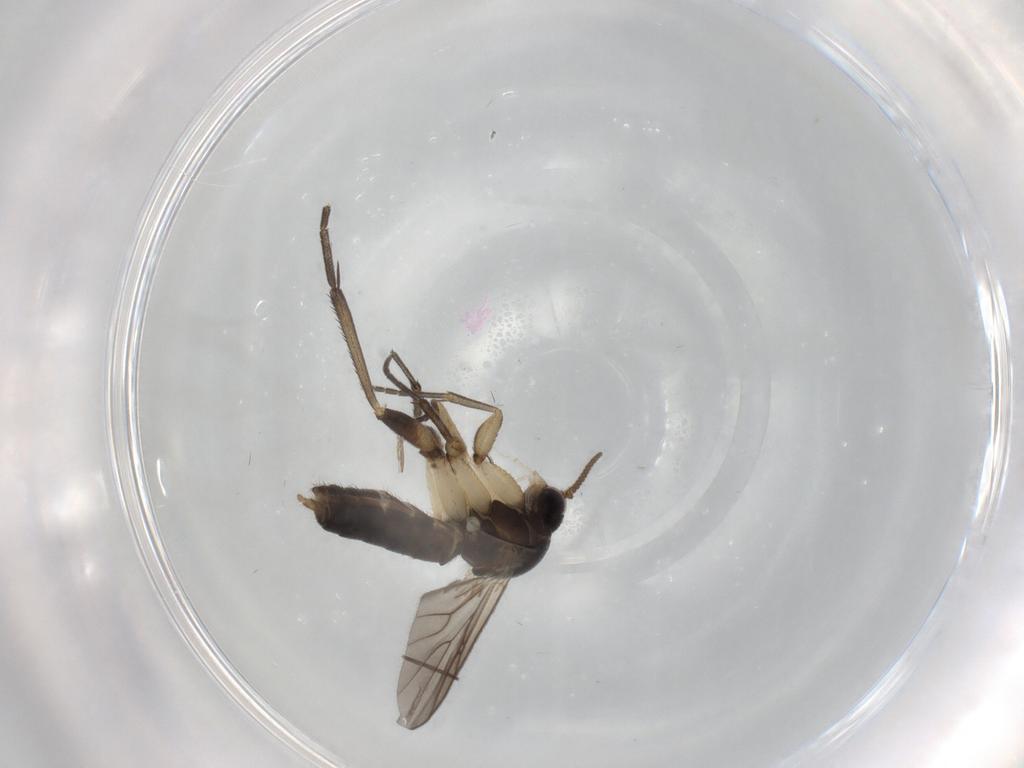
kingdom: Animalia
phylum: Arthropoda
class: Insecta
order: Diptera
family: Mycetophilidae
